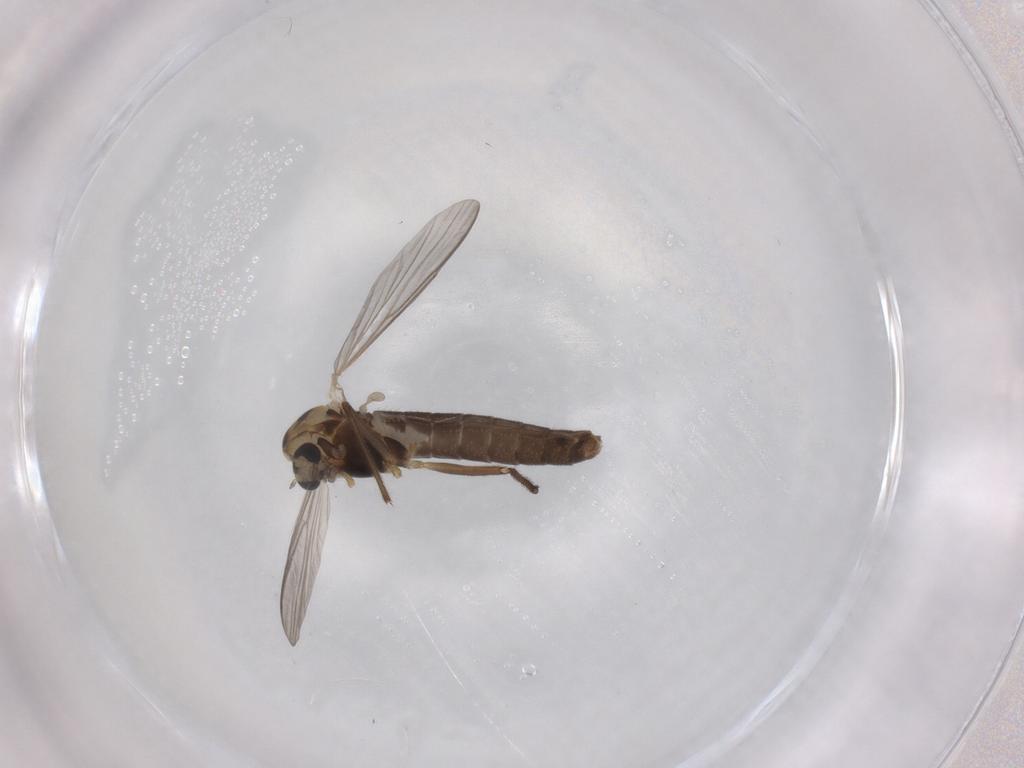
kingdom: Animalia
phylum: Arthropoda
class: Insecta
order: Diptera
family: Chironomidae
